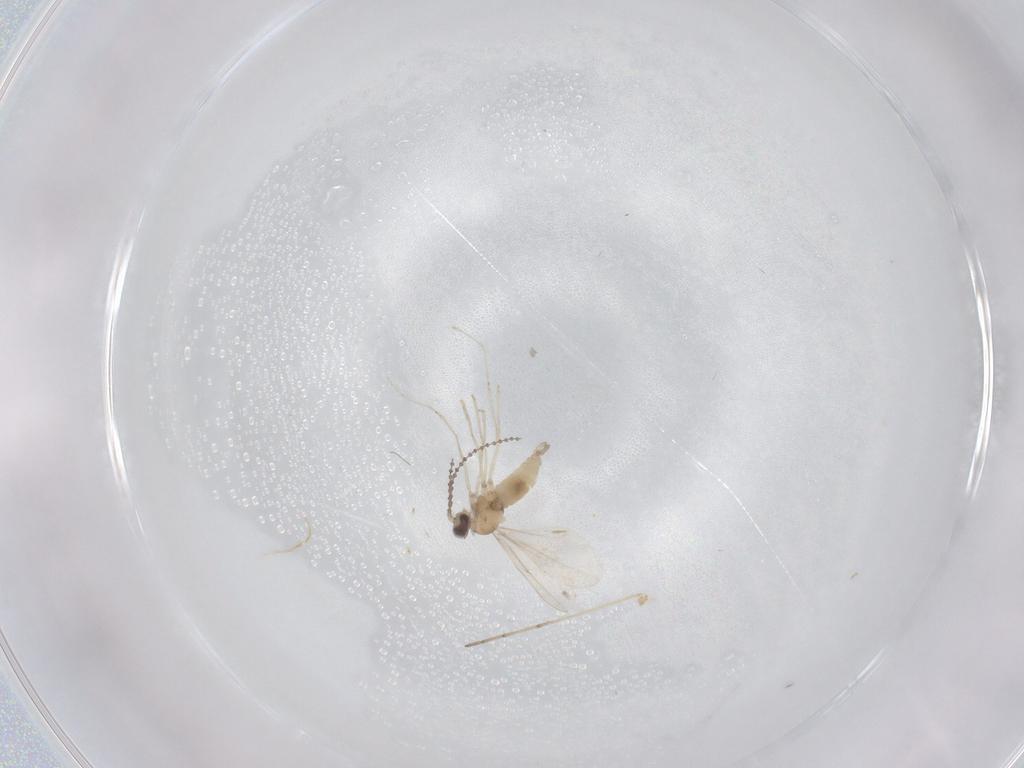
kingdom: Animalia
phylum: Arthropoda
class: Insecta
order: Diptera
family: Cecidomyiidae
